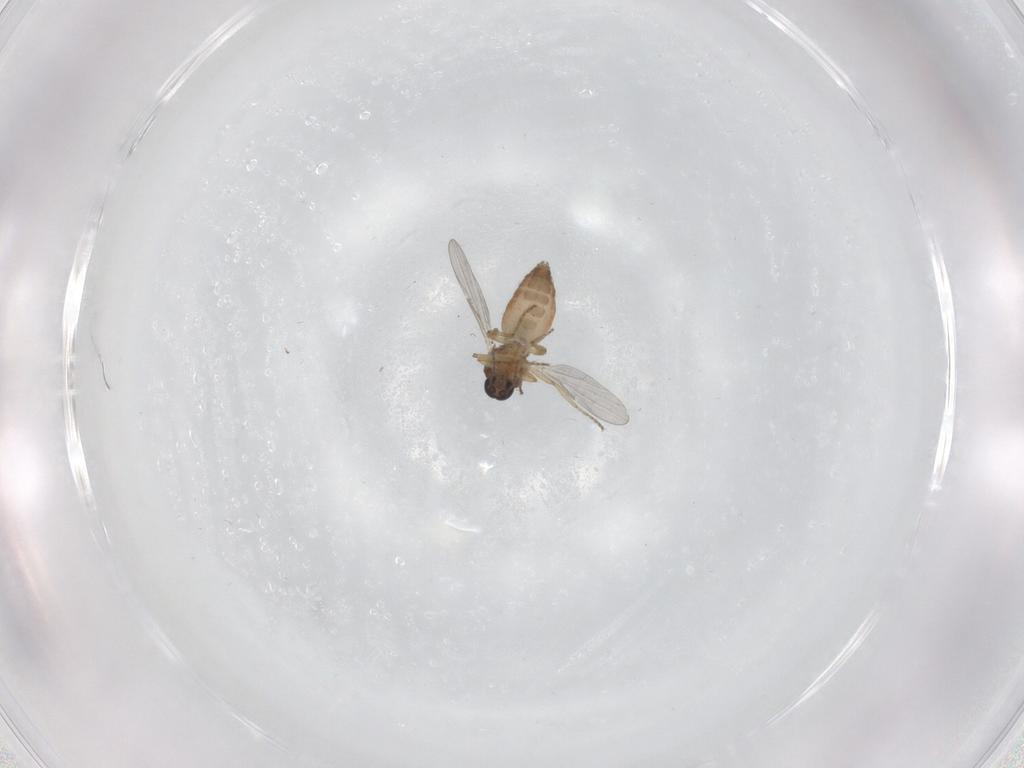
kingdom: Animalia
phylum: Arthropoda
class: Insecta
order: Diptera
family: Ceratopogonidae
